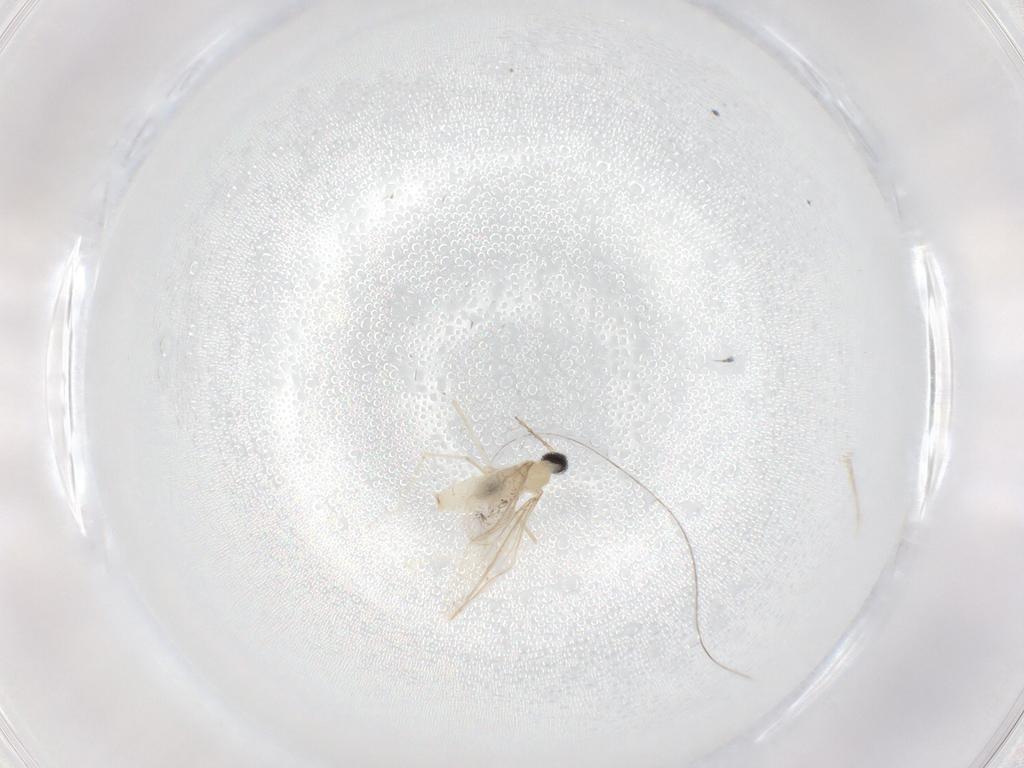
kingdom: Animalia
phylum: Arthropoda
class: Insecta
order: Diptera
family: Cecidomyiidae
